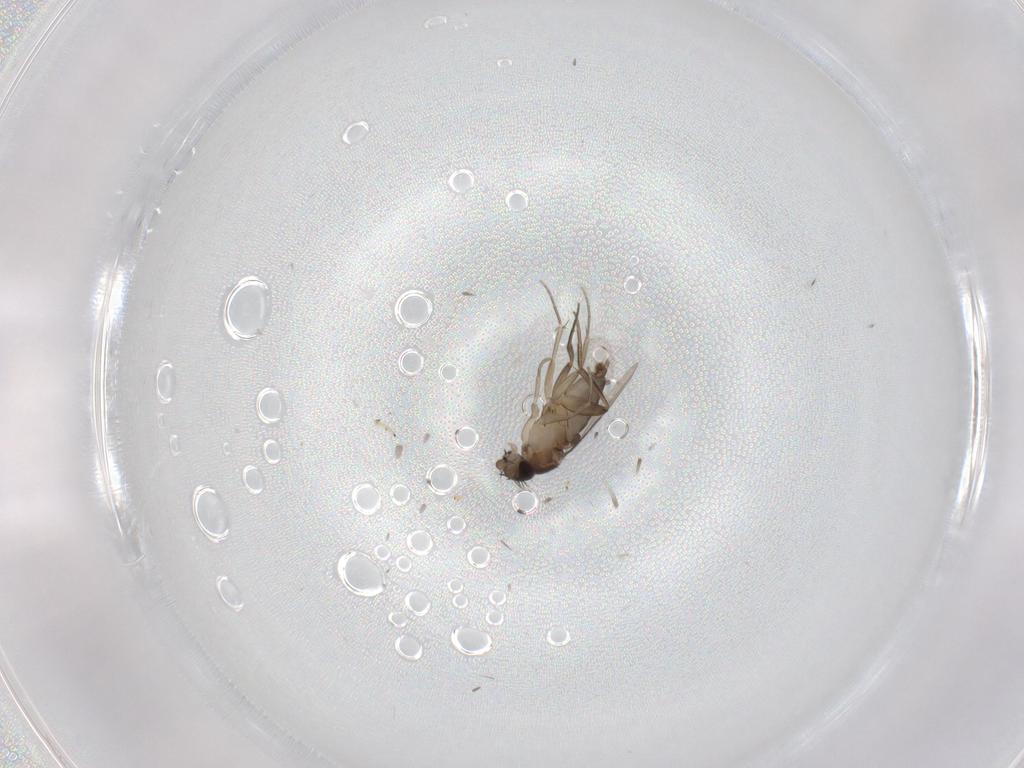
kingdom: Animalia
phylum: Arthropoda
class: Insecta
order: Diptera
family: Phoridae
